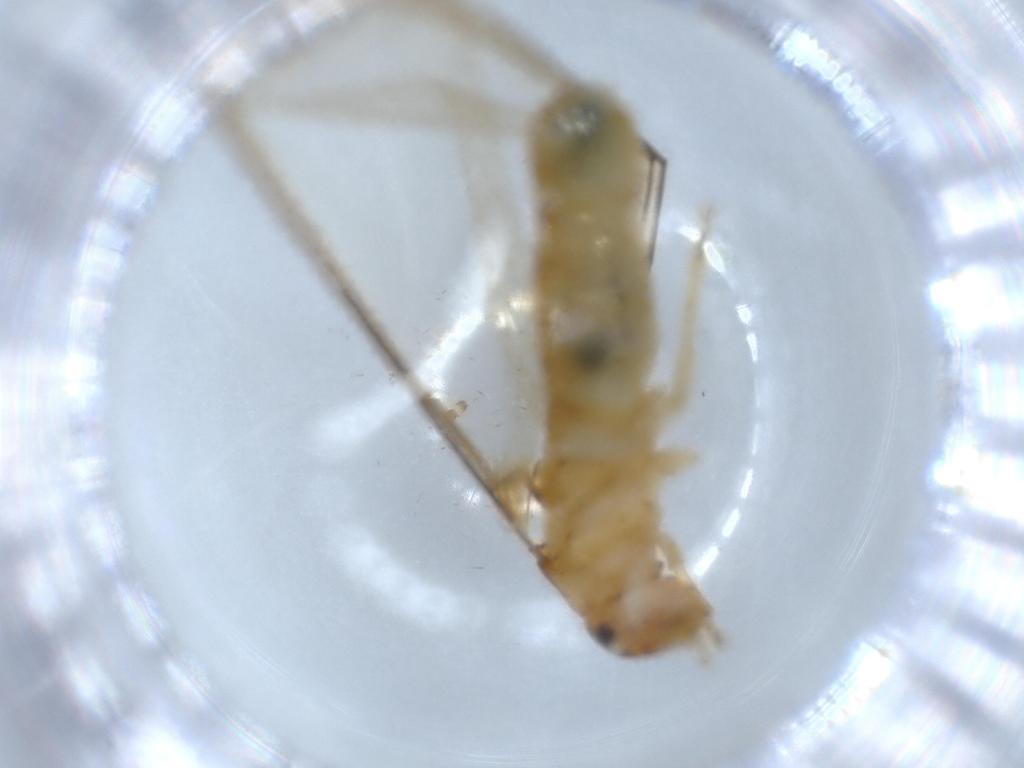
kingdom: Animalia
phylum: Arthropoda
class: Insecta
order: Blattodea
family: Kalotermitidae
